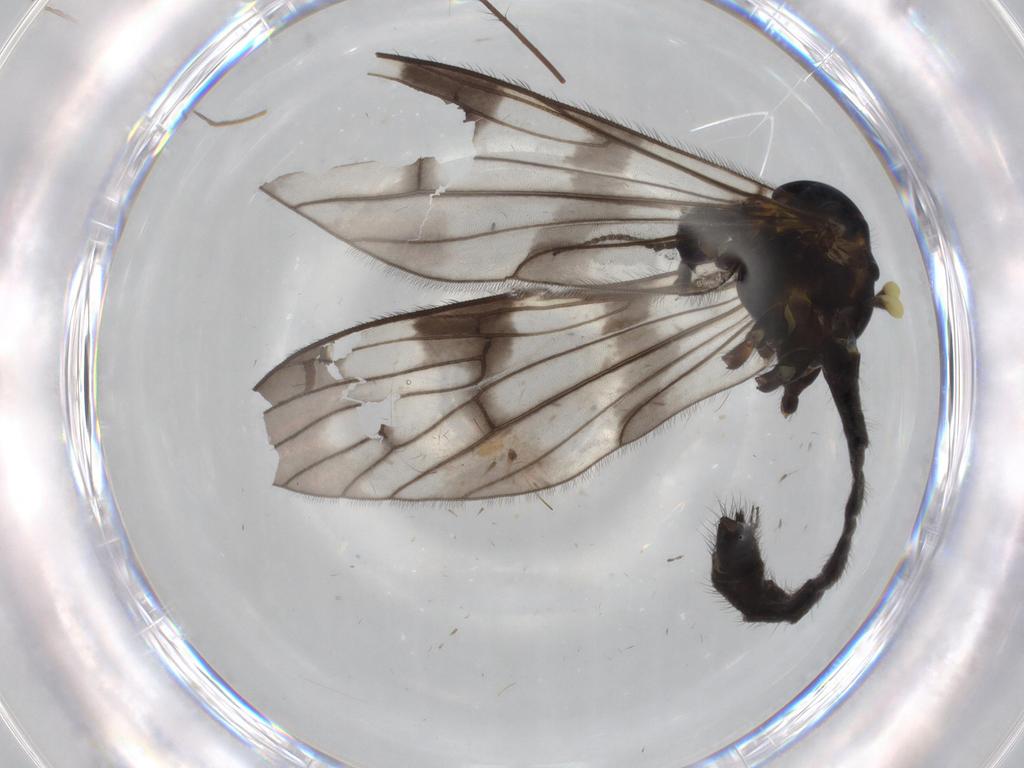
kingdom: Animalia
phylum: Arthropoda
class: Insecta
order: Diptera
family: Limoniidae
